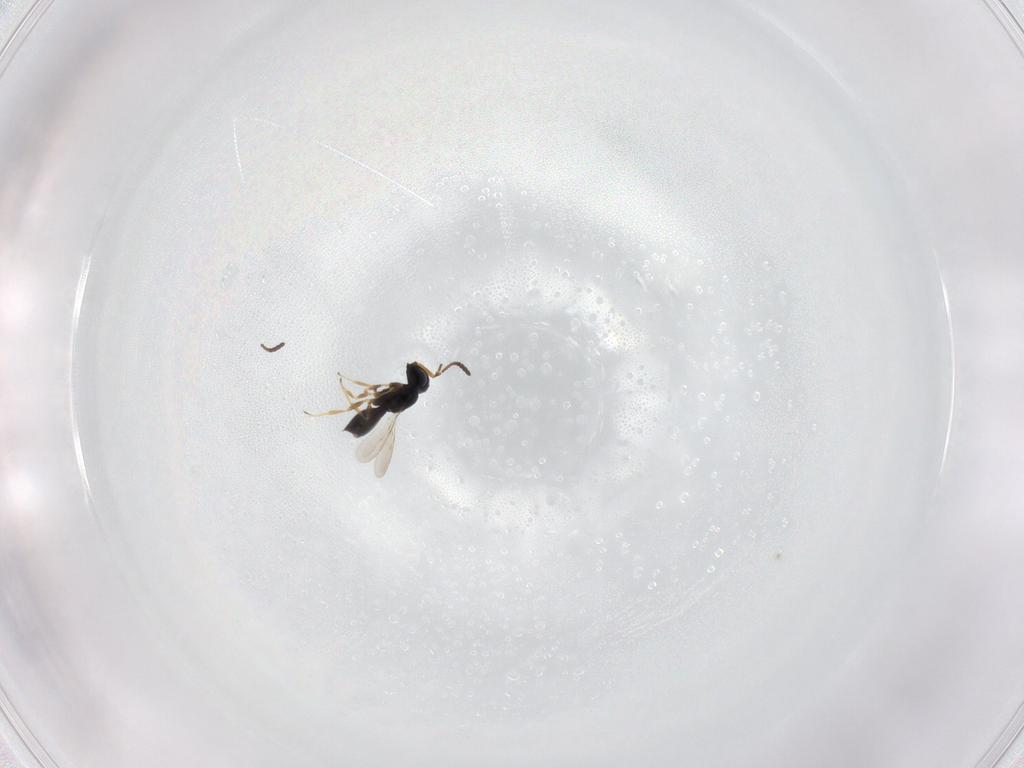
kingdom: Animalia
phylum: Arthropoda
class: Insecta
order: Hymenoptera
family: Scelionidae
